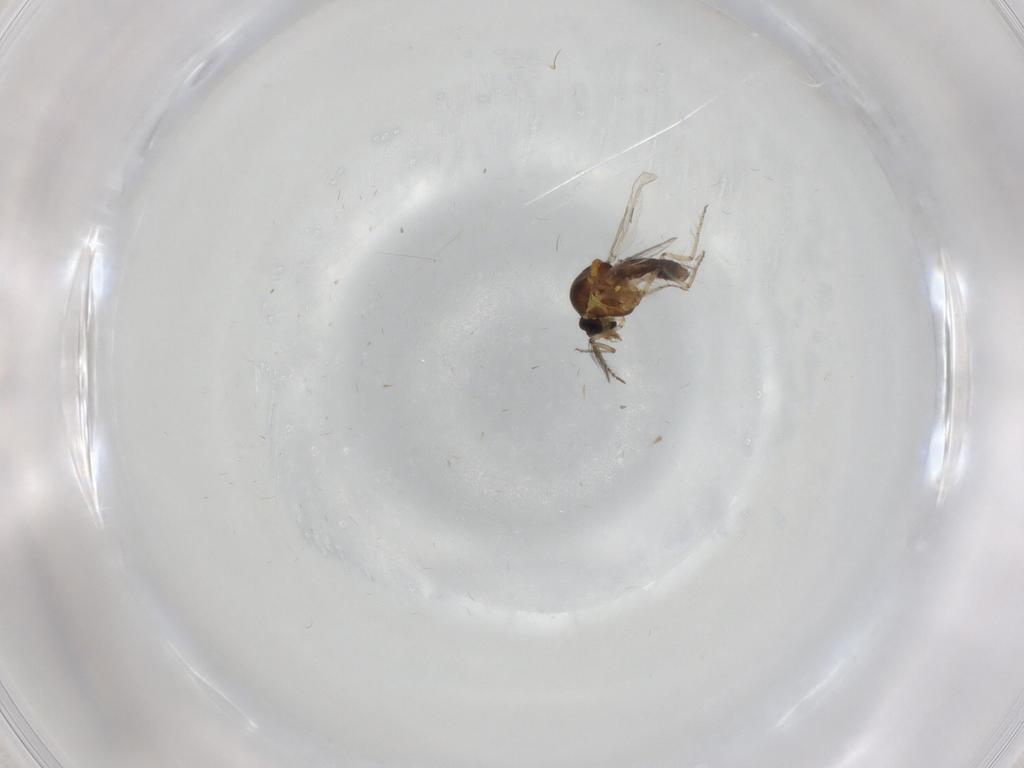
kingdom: Animalia
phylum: Arthropoda
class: Insecta
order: Diptera
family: Ceratopogonidae
